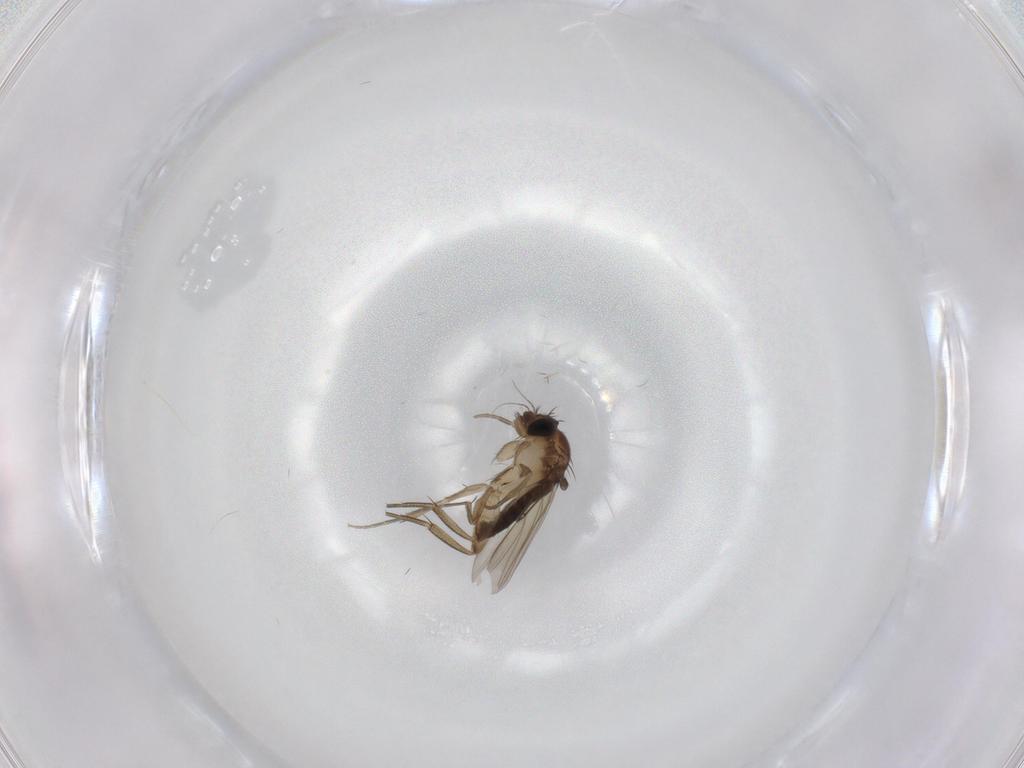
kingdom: Animalia
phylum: Arthropoda
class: Insecta
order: Diptera
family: Phoridae
